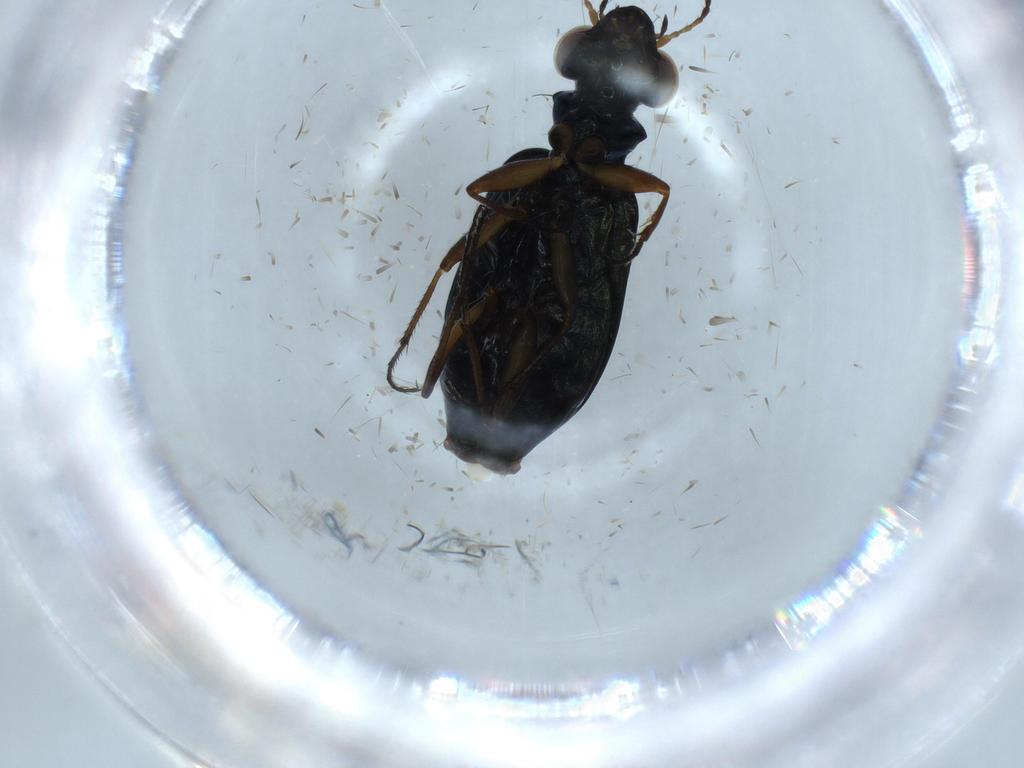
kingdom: Animalia
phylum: Arthropoda
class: Insecta
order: Coleoptera
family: Carabidae
